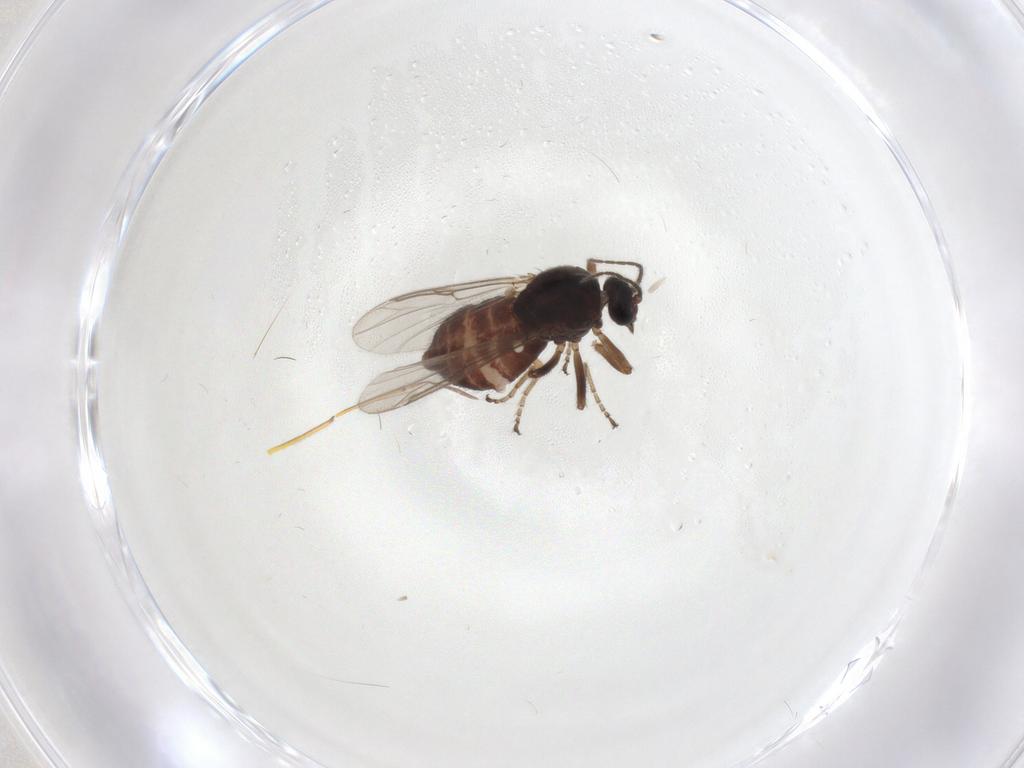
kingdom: Animalia
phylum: Arthropoda
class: Insecta
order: Diptera
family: Ceratopogonidae
